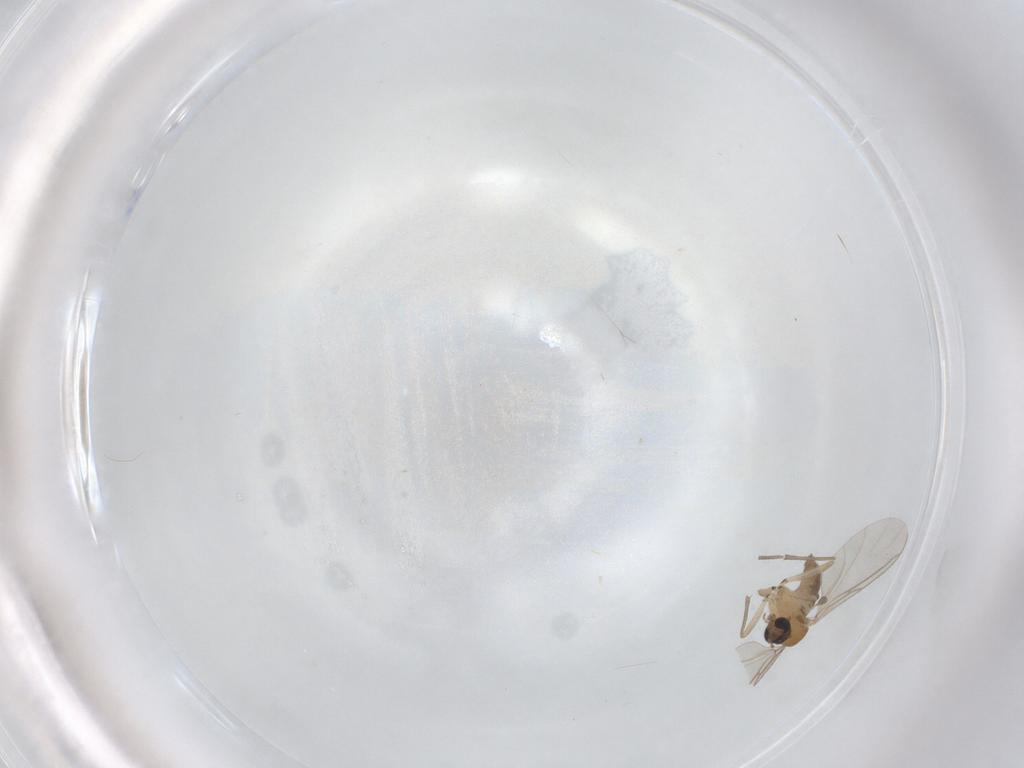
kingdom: Animalia
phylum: Arthropoda
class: Insecta
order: Diptera
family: Sciaridae
